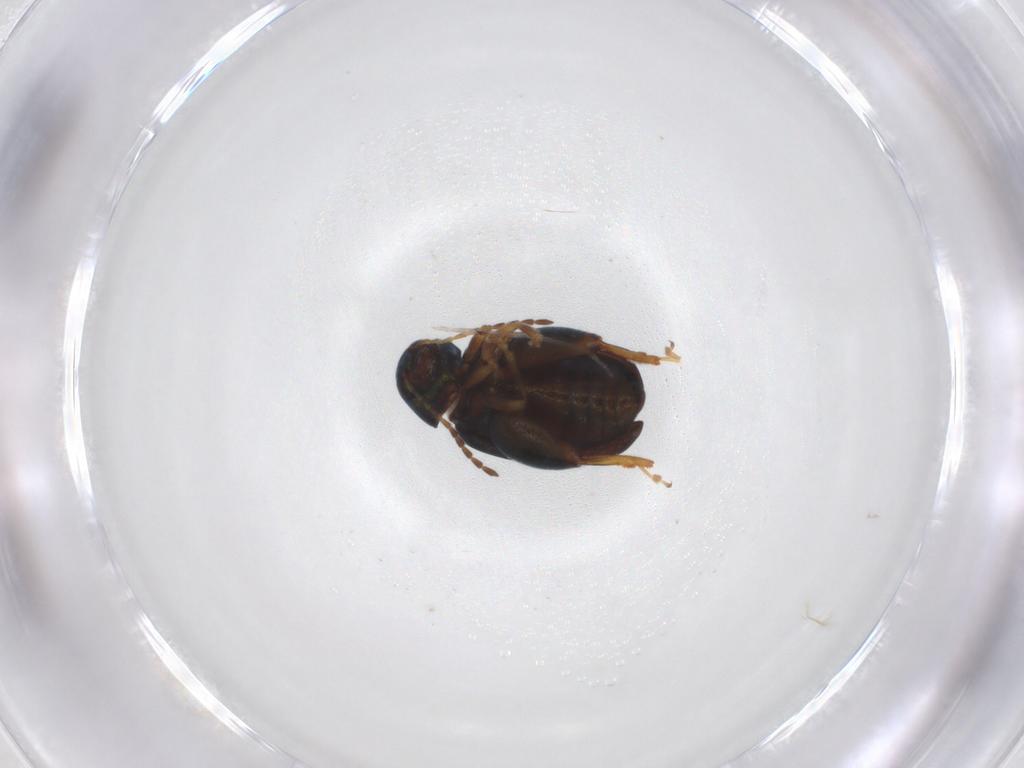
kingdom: Animalia
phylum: Arthropoda
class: Insecta
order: Coleoptera
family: Chrysomelidae
